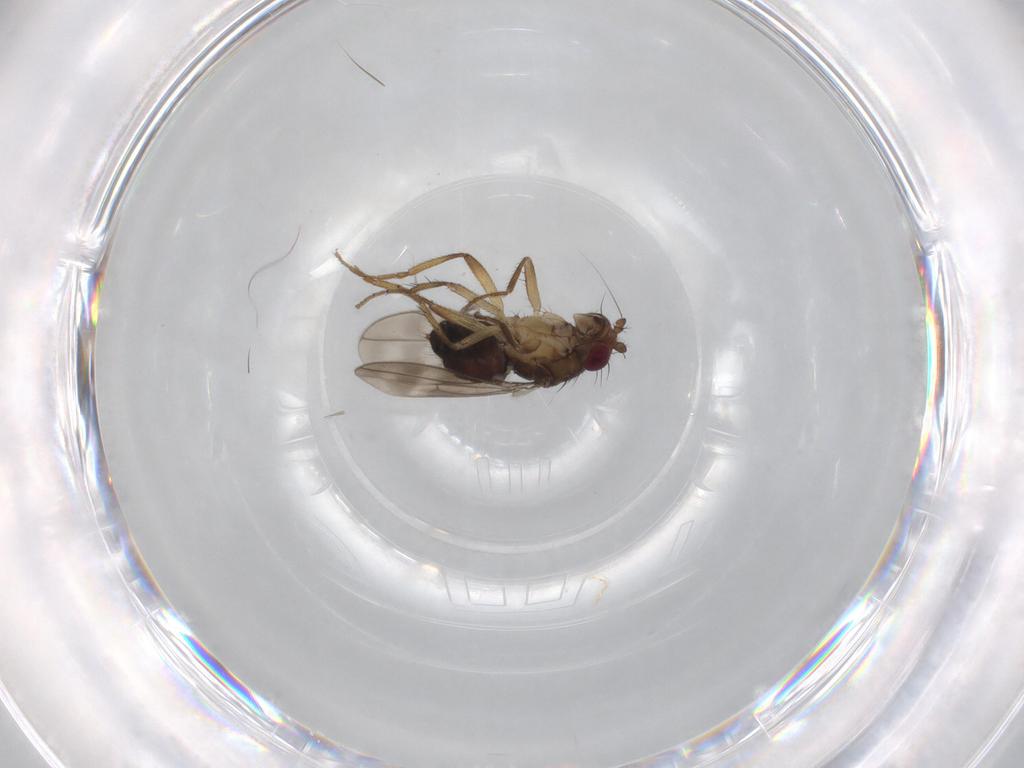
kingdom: Animalia
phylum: Arthropoda
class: Insecta
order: Diptera
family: Sphaeroceridae
